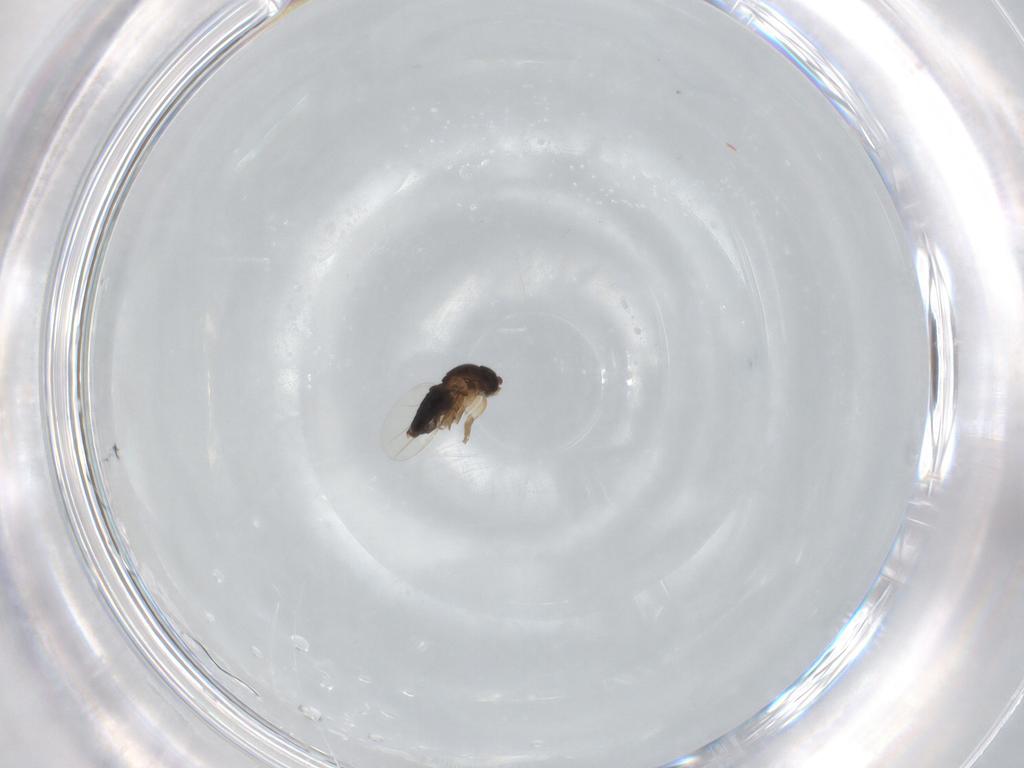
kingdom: Animalia
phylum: Arthropoda
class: Insecta
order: Diptera
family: Phoridae
